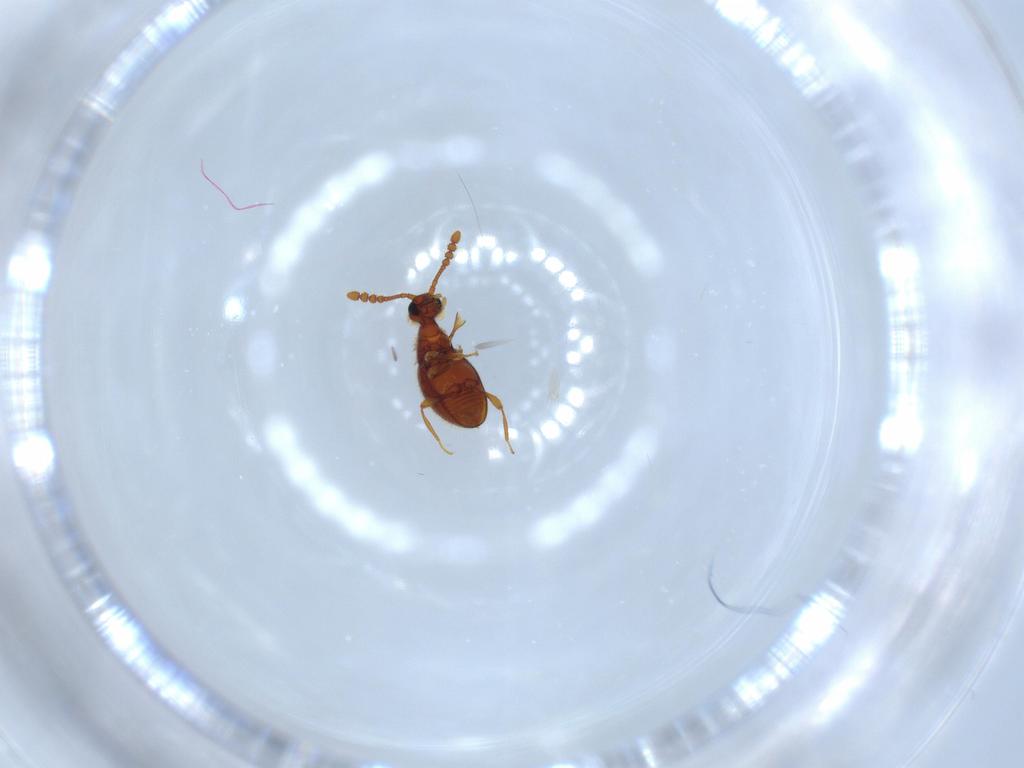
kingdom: Animalia
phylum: Arthropoda
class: Insecta
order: Coleoptera
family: Staphylinidae
